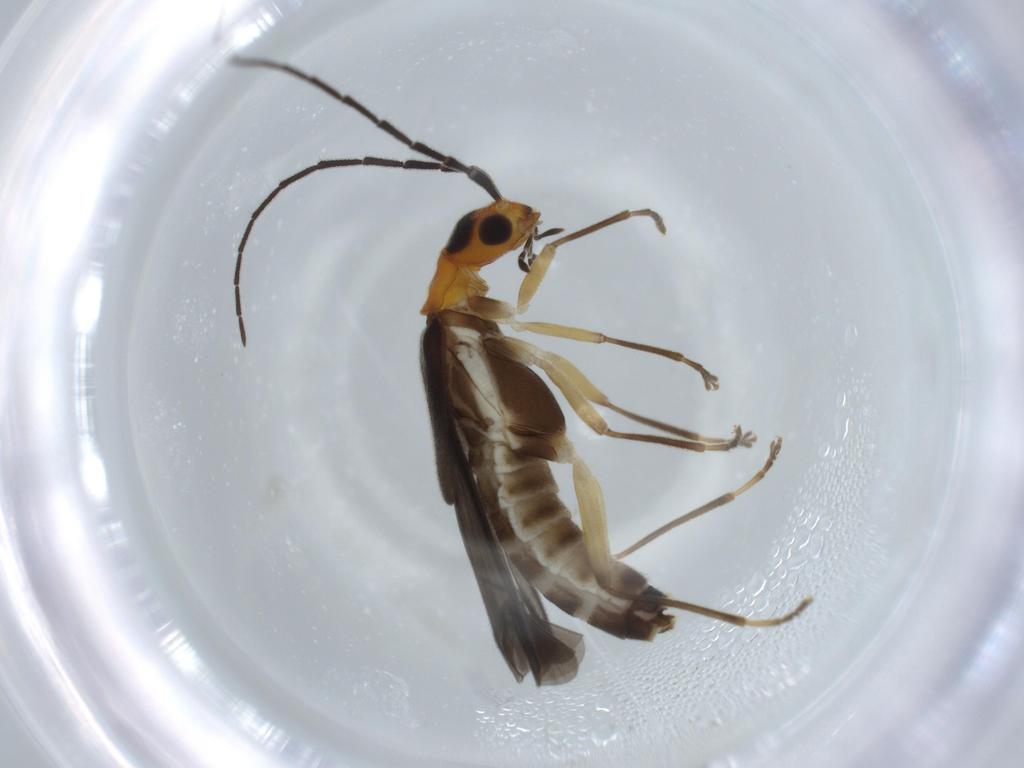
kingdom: Animalia
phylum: Arthropoda
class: Insecta
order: Coleoptera
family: Cantharidae
